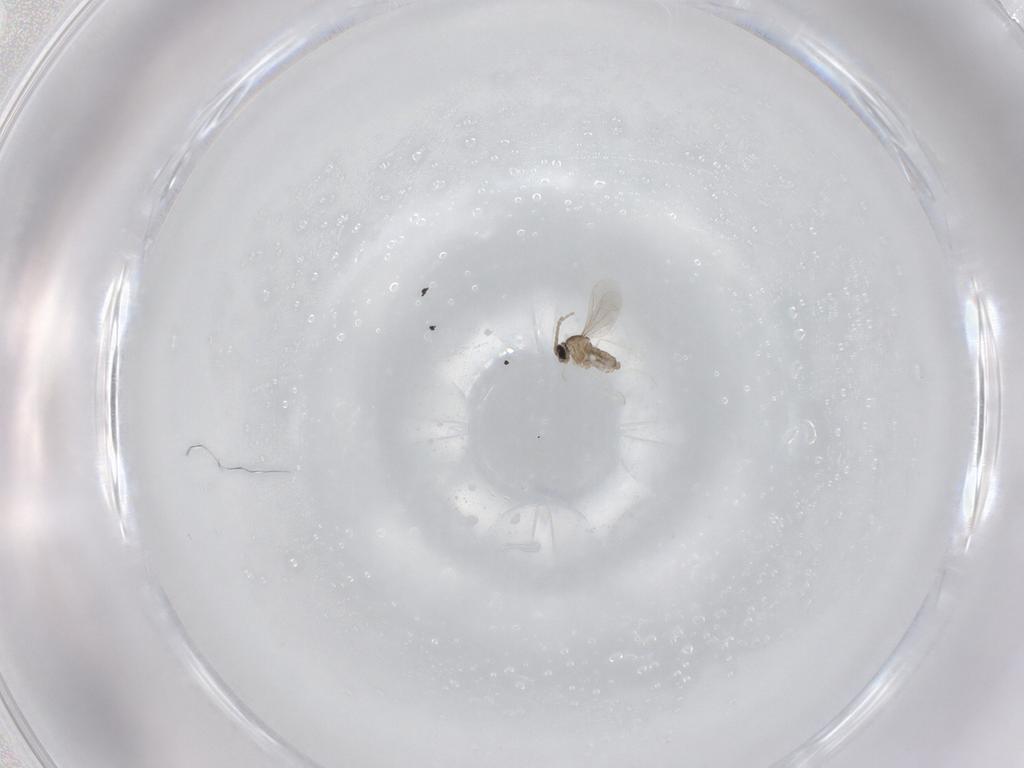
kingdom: Animalia
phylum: Arthropoda
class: Insecta
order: Diptera
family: Cecidomyiidae
